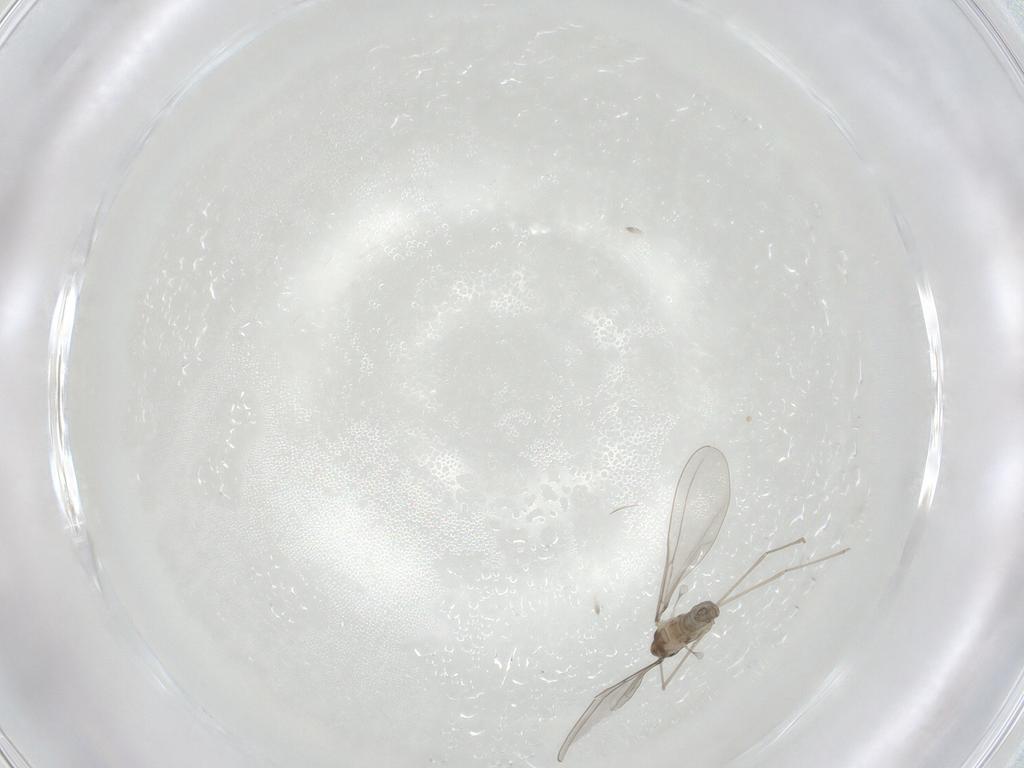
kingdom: Animalia
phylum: Arthropoda
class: Insecta
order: Diptera
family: Cecidomyiidae
